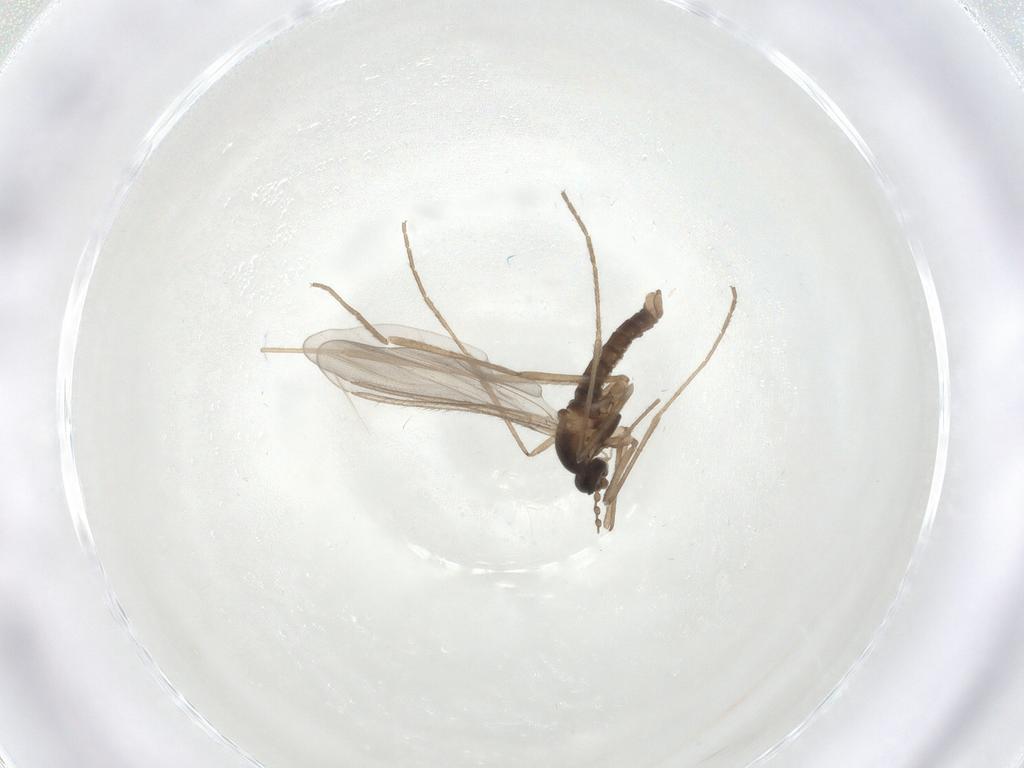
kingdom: Animalia
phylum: Arthropoda
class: Insecta
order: Diptera
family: Cecidomyiidae
